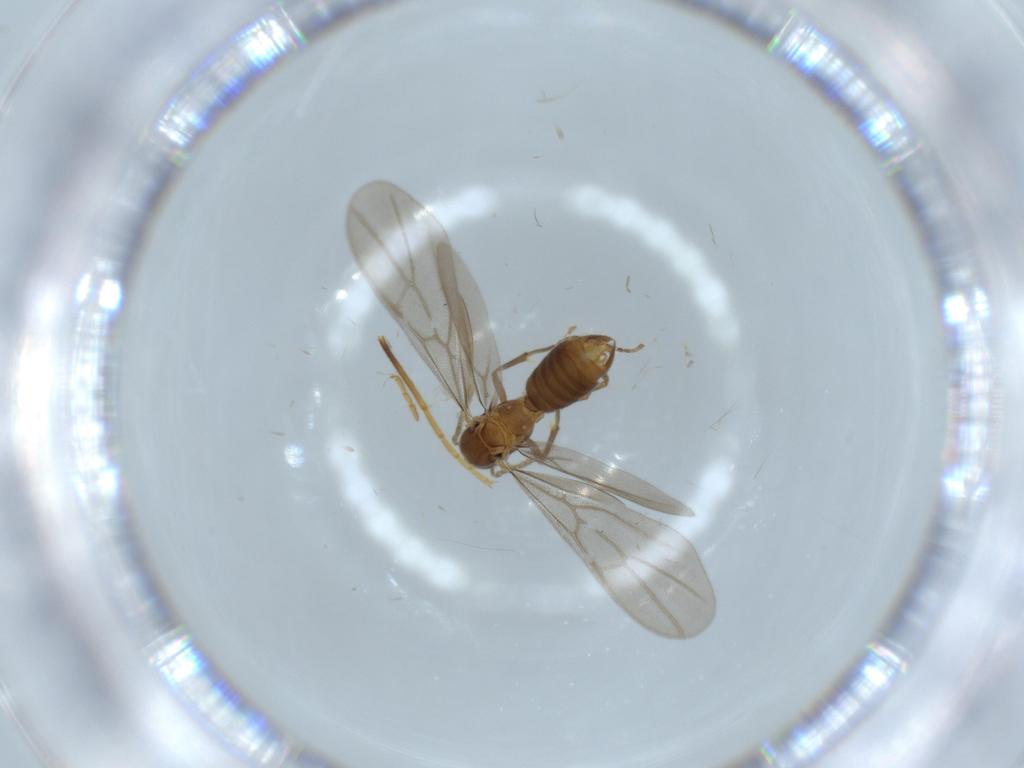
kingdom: Animalia
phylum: Arthropoda
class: Insecta
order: Hymenoptera
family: Formicidae
